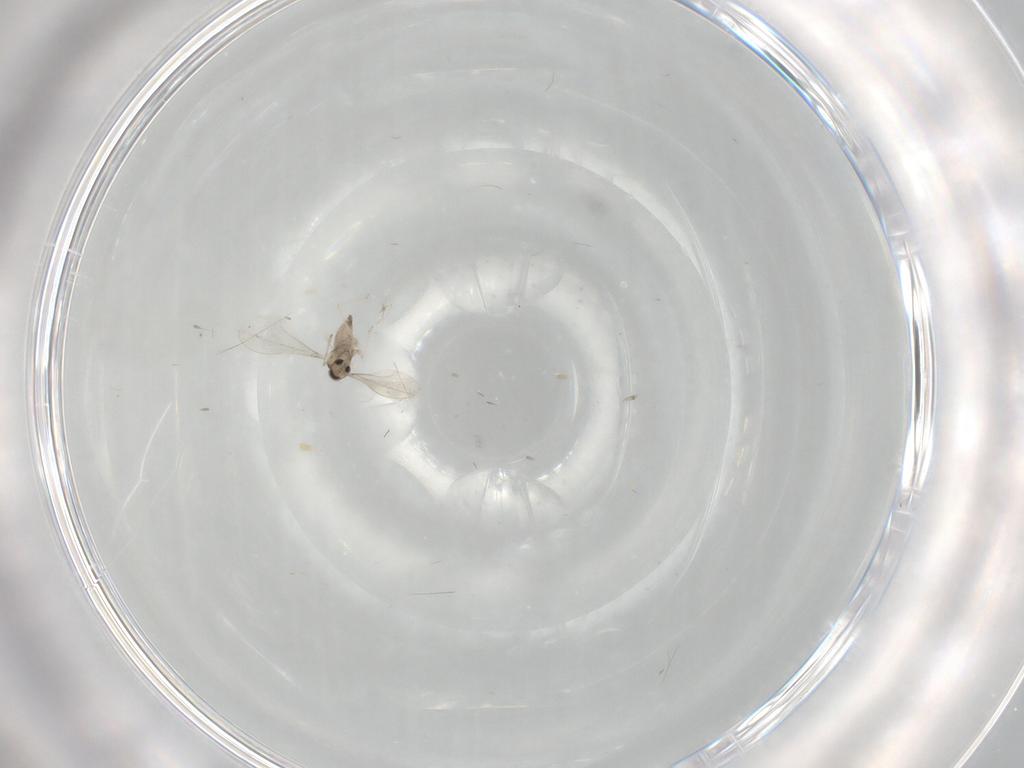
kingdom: Animalia
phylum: Arthropoda
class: Insecta
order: Diptera
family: Cecidomyiidae
